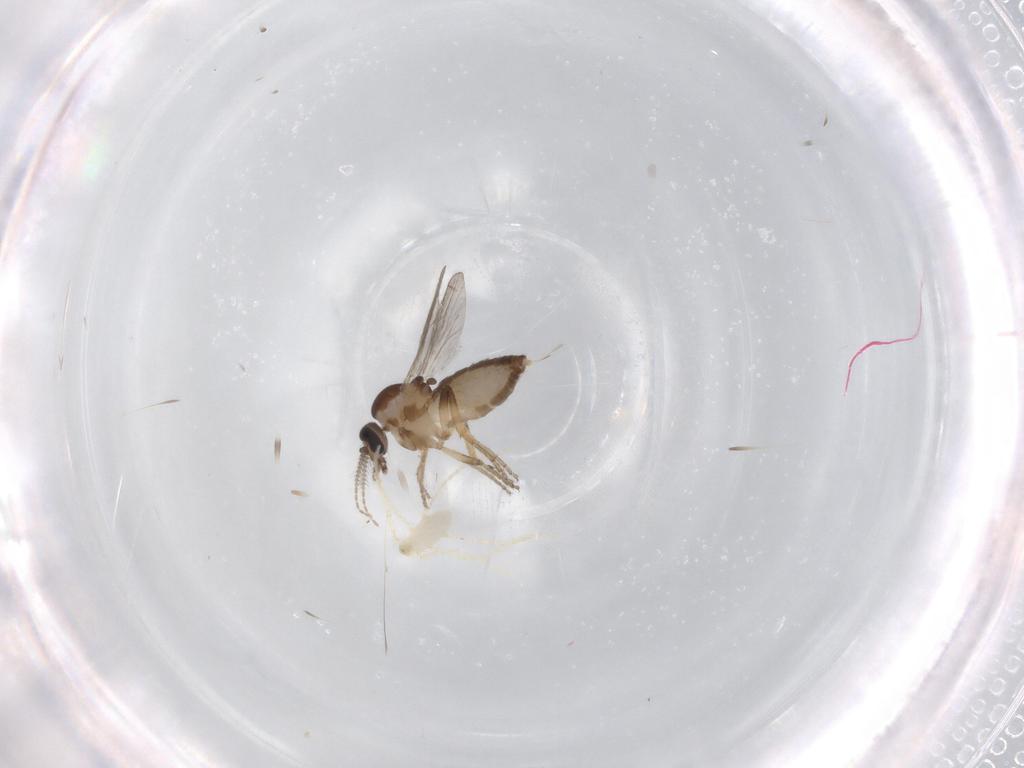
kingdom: Animalia
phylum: Arthropoda
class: Insecta
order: Diptera
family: Ceratopogonidae
